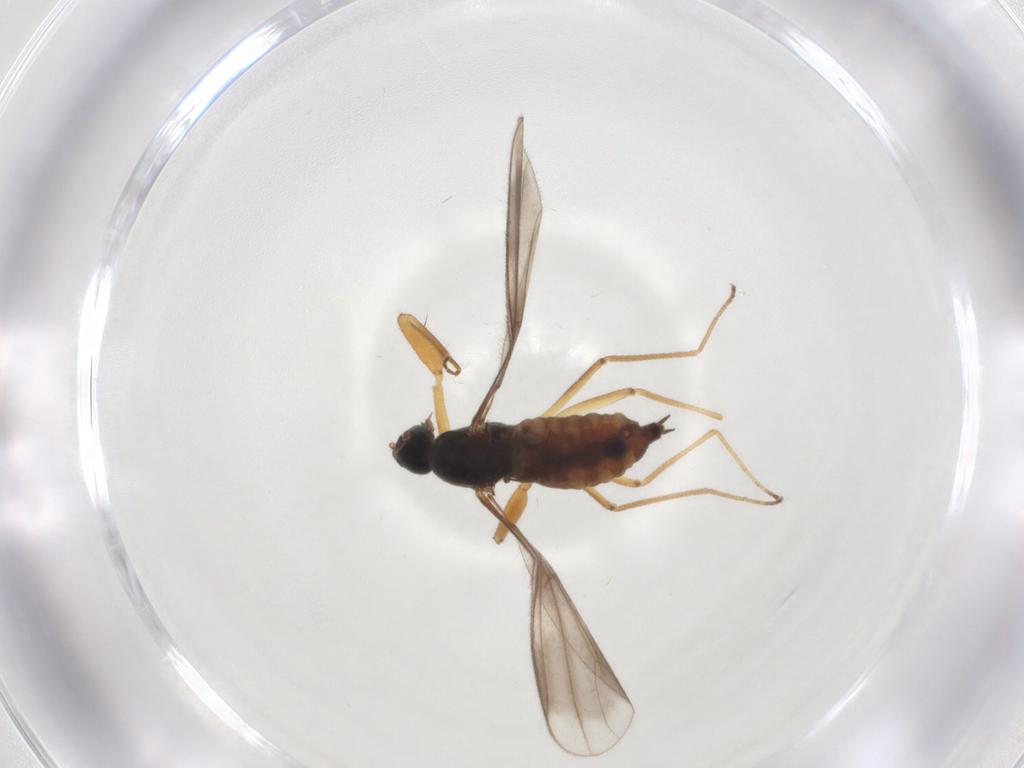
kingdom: Animalia
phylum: Arthropoda
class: Insecta
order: Diptera
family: Empididae
